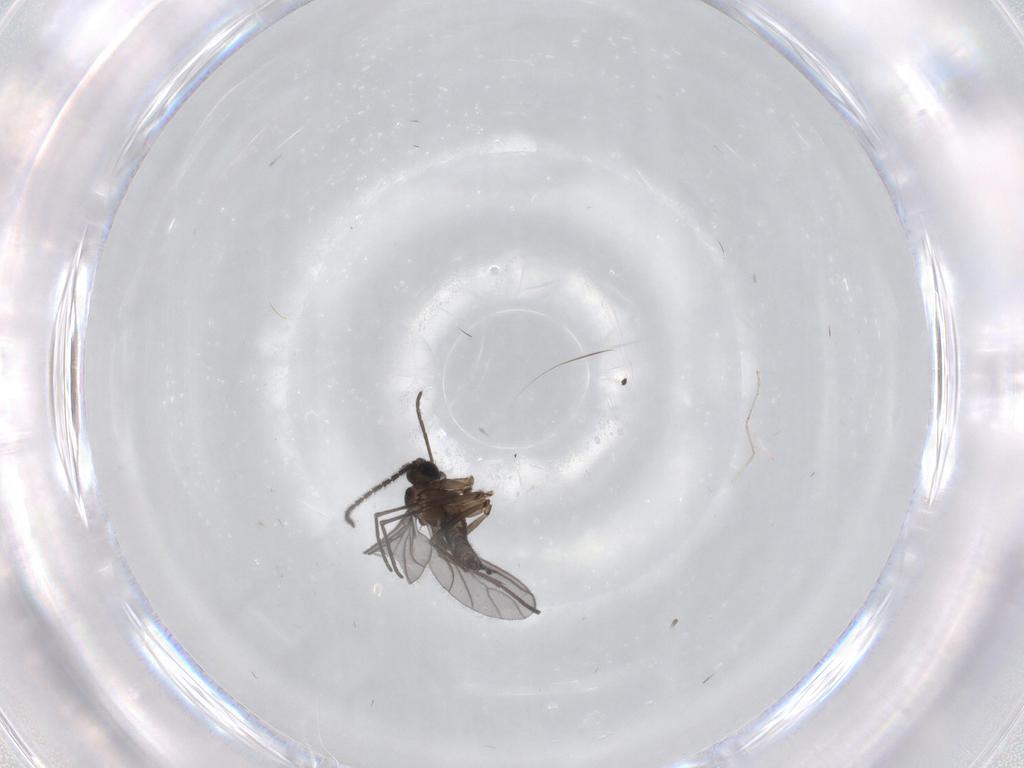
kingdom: Animalia
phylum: Arthropoda
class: Insecta
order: Diptera
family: Sciaridae
